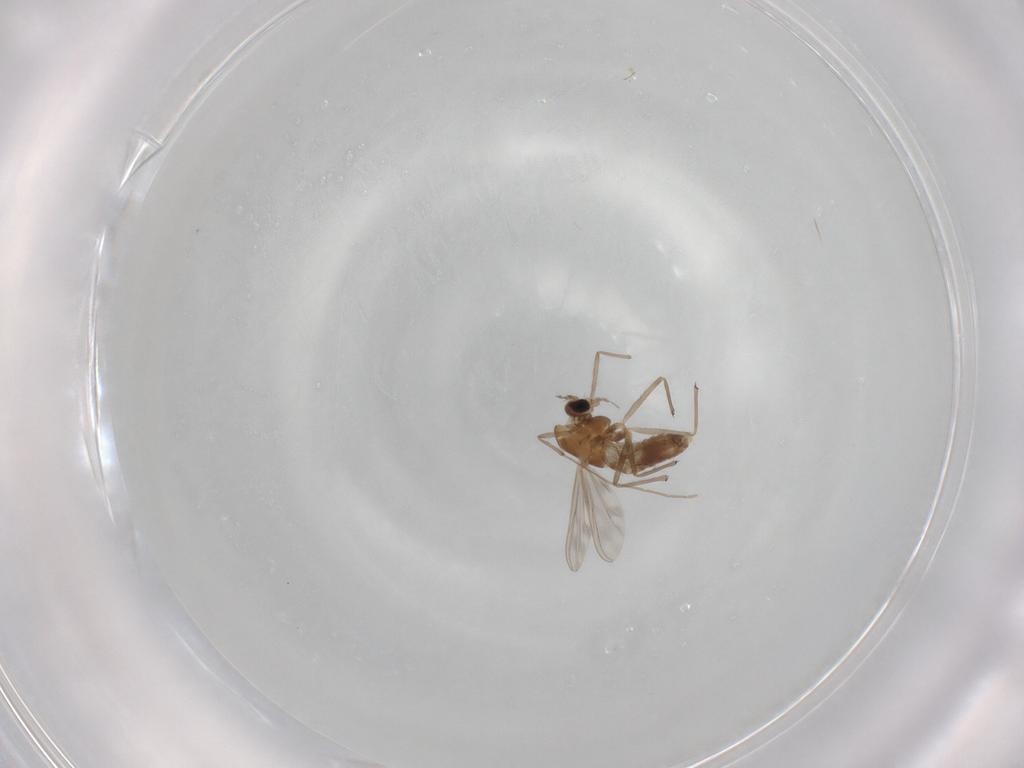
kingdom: Animalia
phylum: Arthropoda
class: Insecta
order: Diptera
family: Chironomidae
